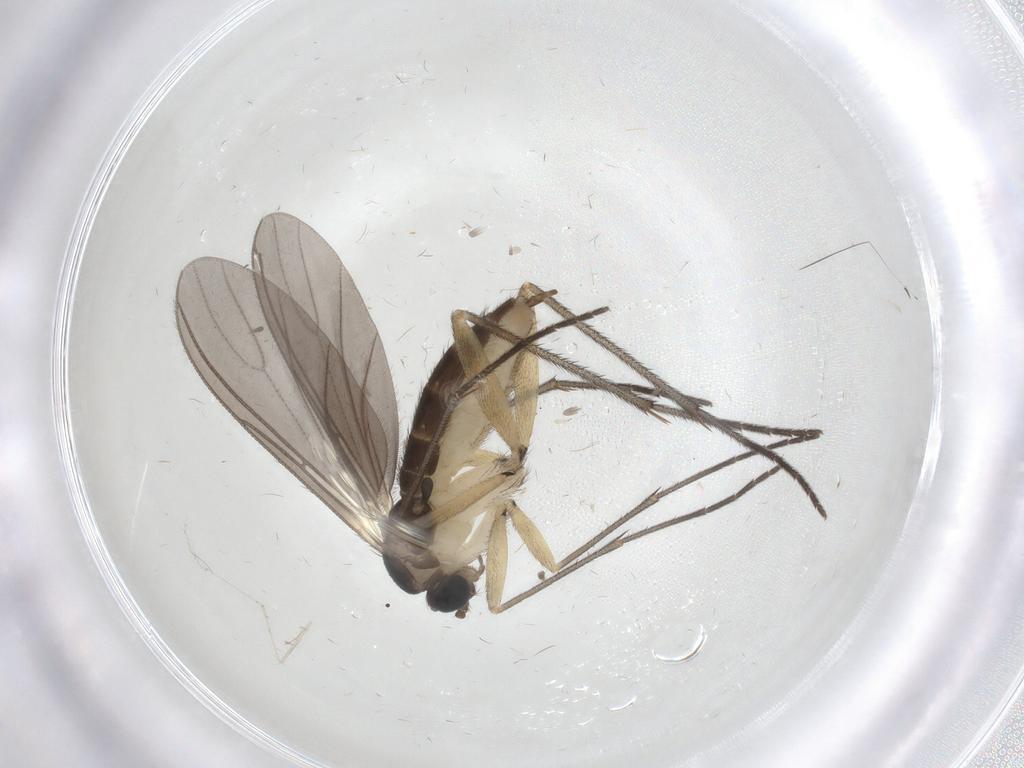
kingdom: Animalia
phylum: Arthropoda
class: Insecta
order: Diptera
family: Sciaridae
